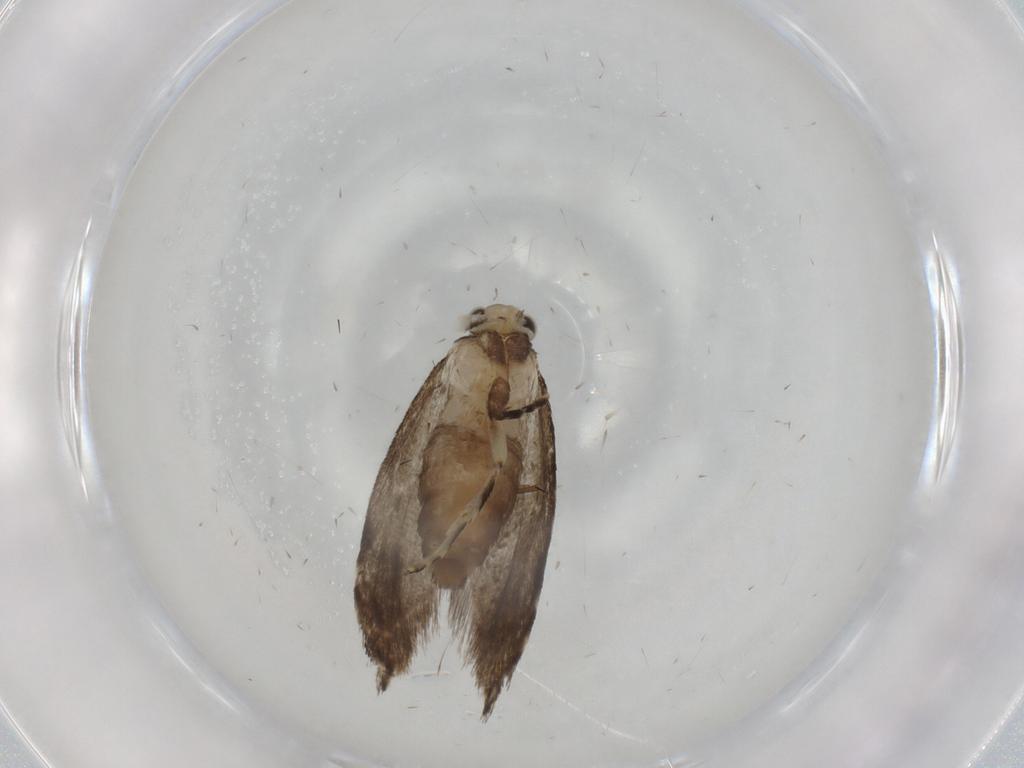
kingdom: Animalia
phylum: Arthropoda
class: Insecta
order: Lepidoptera
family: Tineidae
